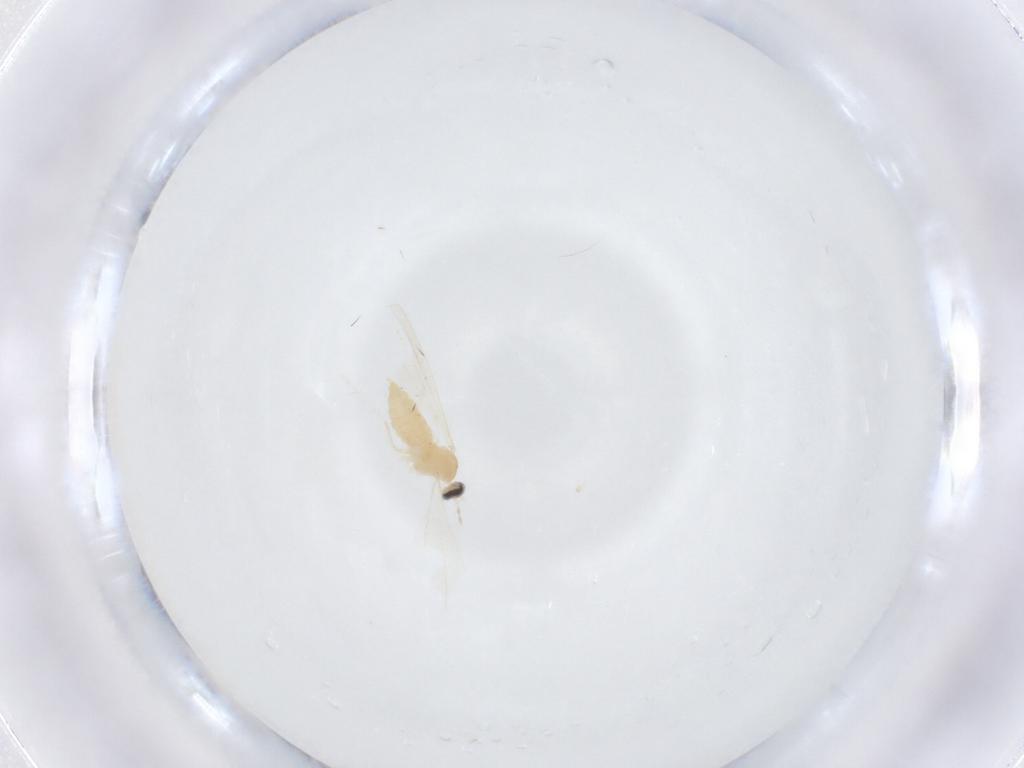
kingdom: Animalia
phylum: Arthropoda
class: Insecta
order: Diptera
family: Cecidomyiidae
